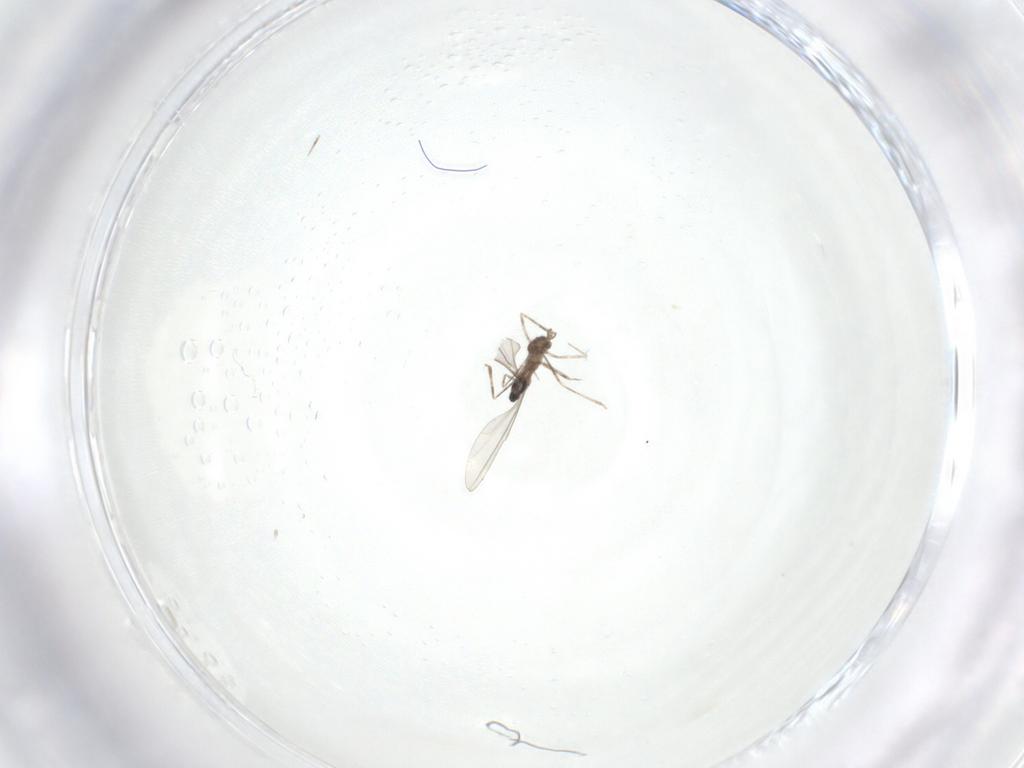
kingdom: Animalia
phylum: Arthropoda
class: Insecta
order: Diptera
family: Cecidomyiidae
